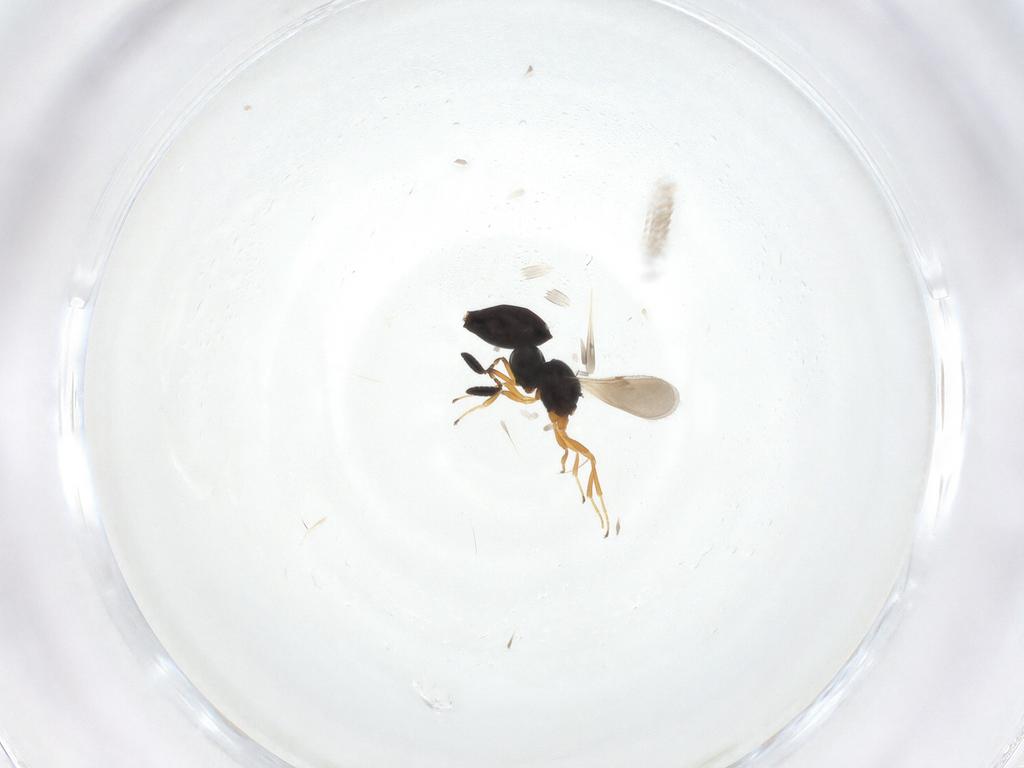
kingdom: Animalia
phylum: Arthropoda
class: Insecta
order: Hymenoptera
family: Scelionidae
